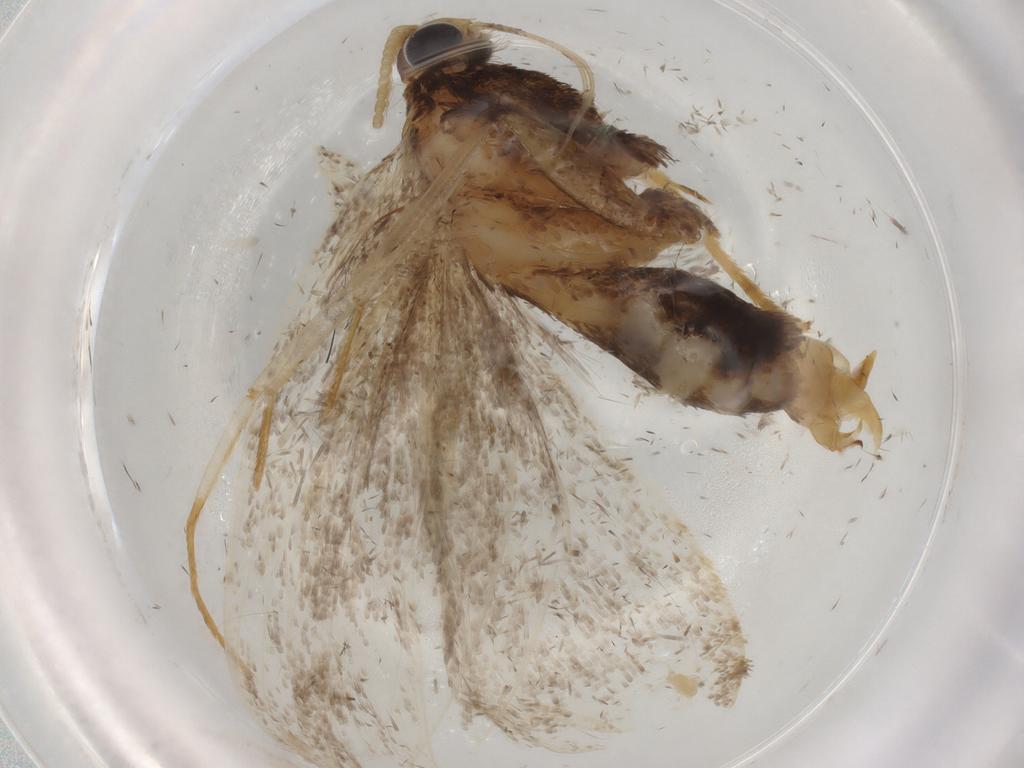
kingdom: Animalia
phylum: Arthropoda
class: Insecta
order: Lepidoptera
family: Lecithoceridae
